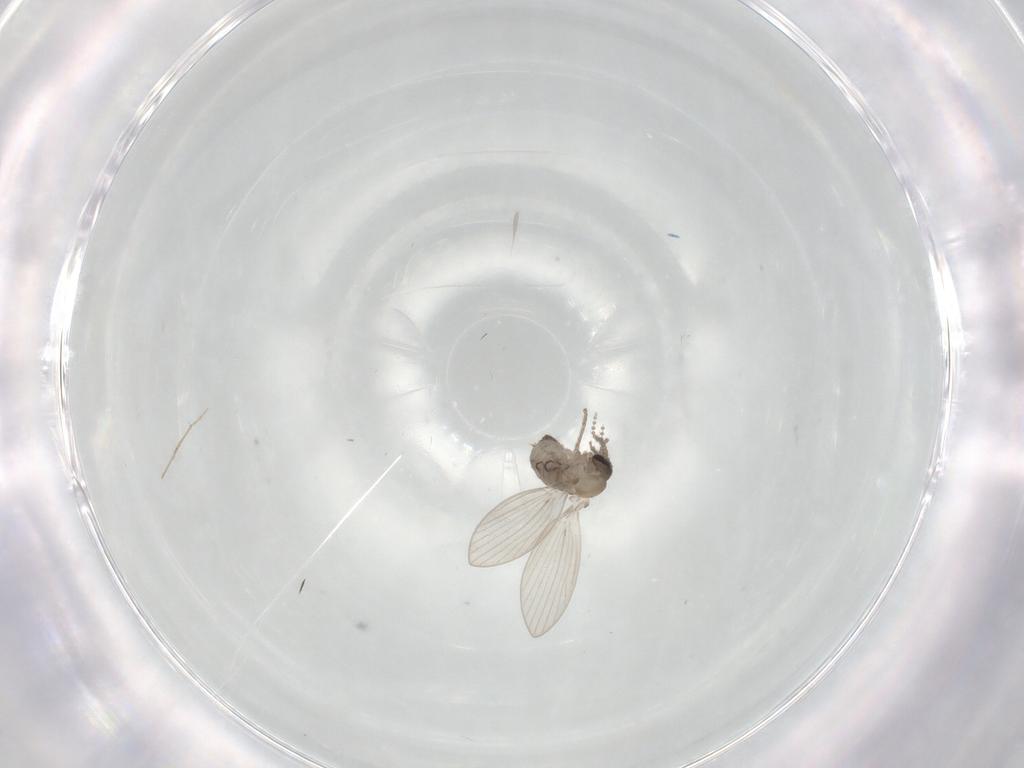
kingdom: Animalia
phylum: Arthropoda
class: Insecta
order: Diptera
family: Psychodidae
